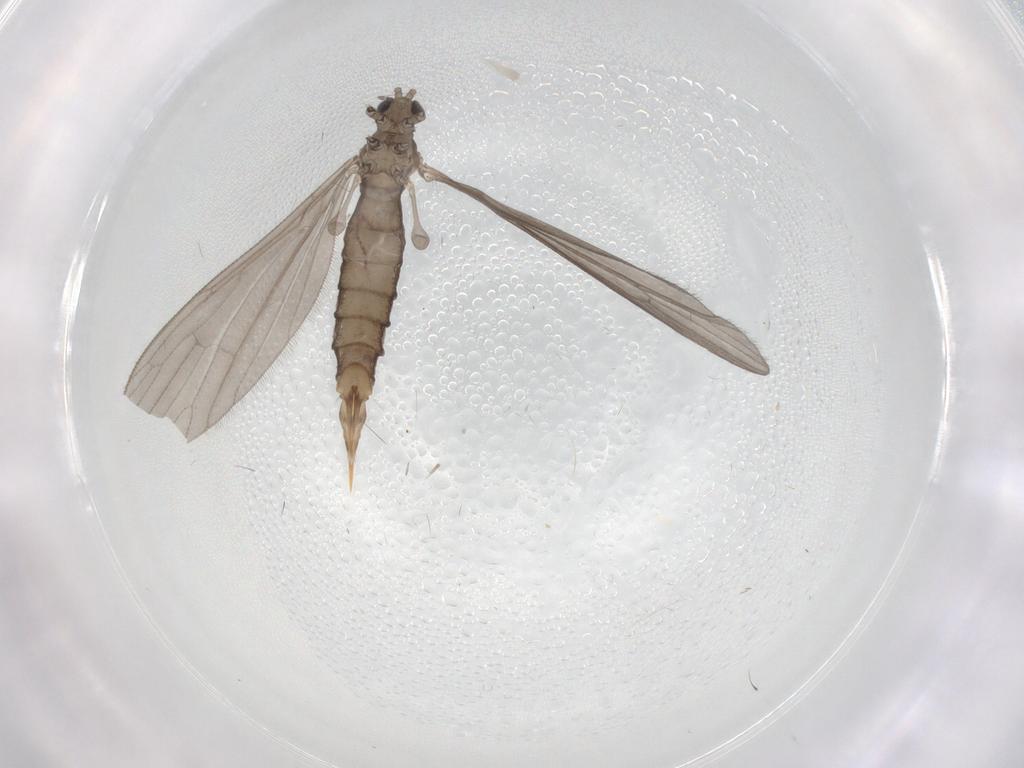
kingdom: Animalia
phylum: Arthropoda
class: Insecta
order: Diptera
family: Limoniidae
